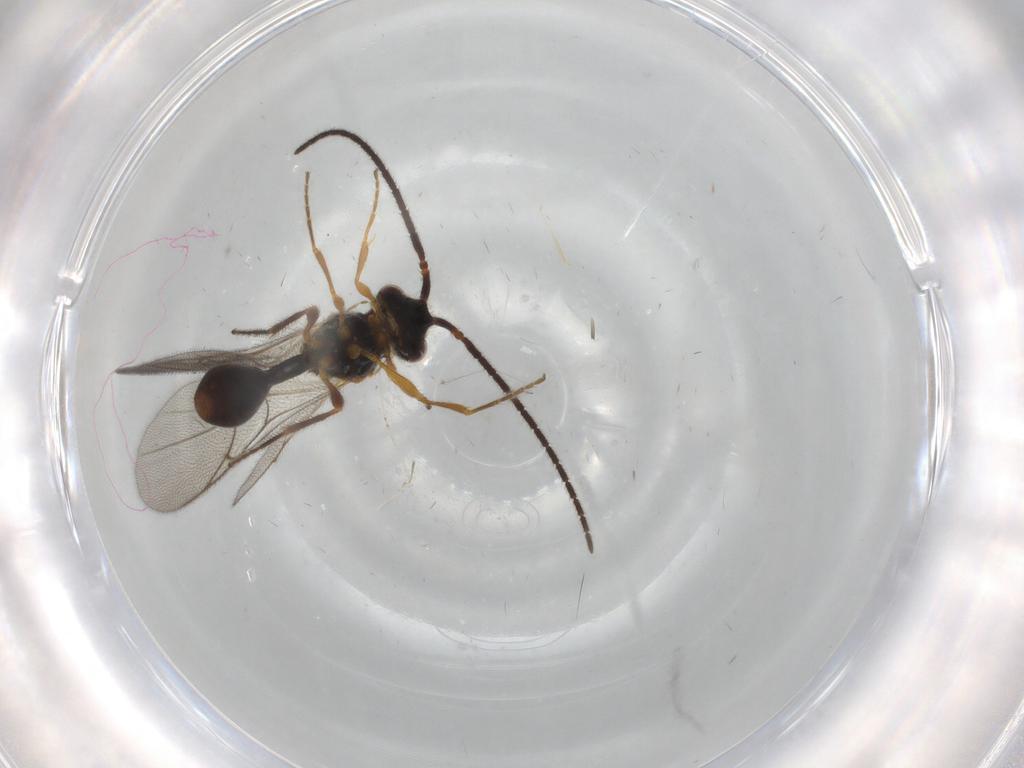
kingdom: Animalia
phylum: Arthropoda
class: Insecta
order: Hymenoptera
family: Diapriidae
